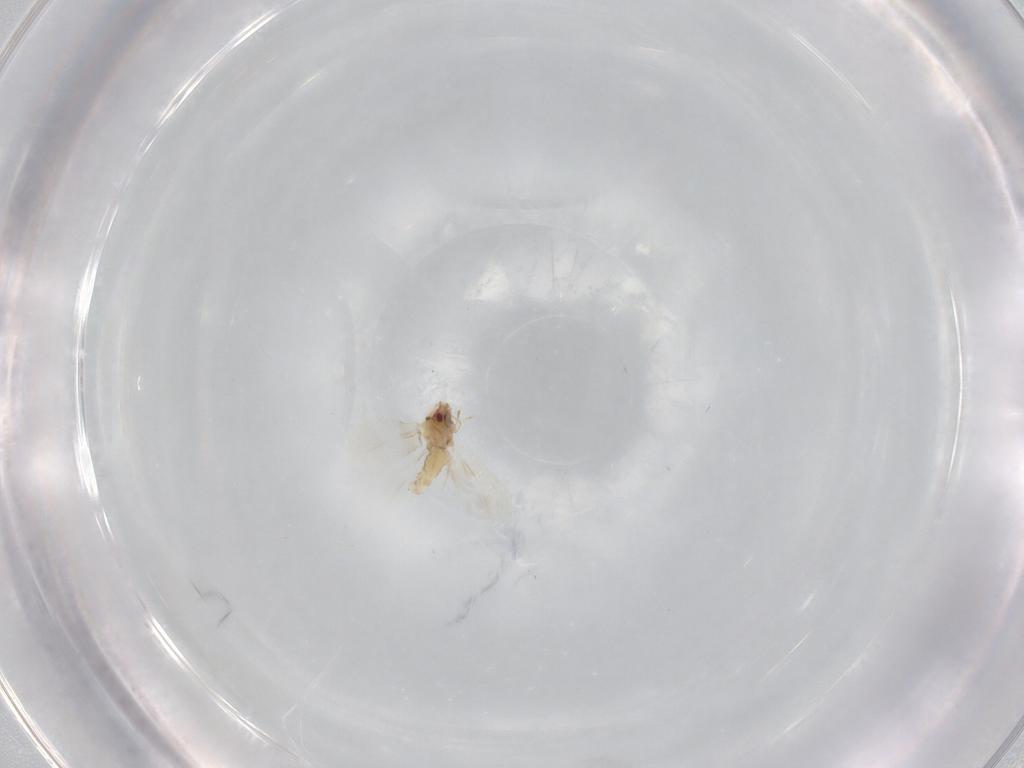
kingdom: Animalia
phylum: Arthropoda
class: Insecta
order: Hemiptera
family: Aleyrodidae
